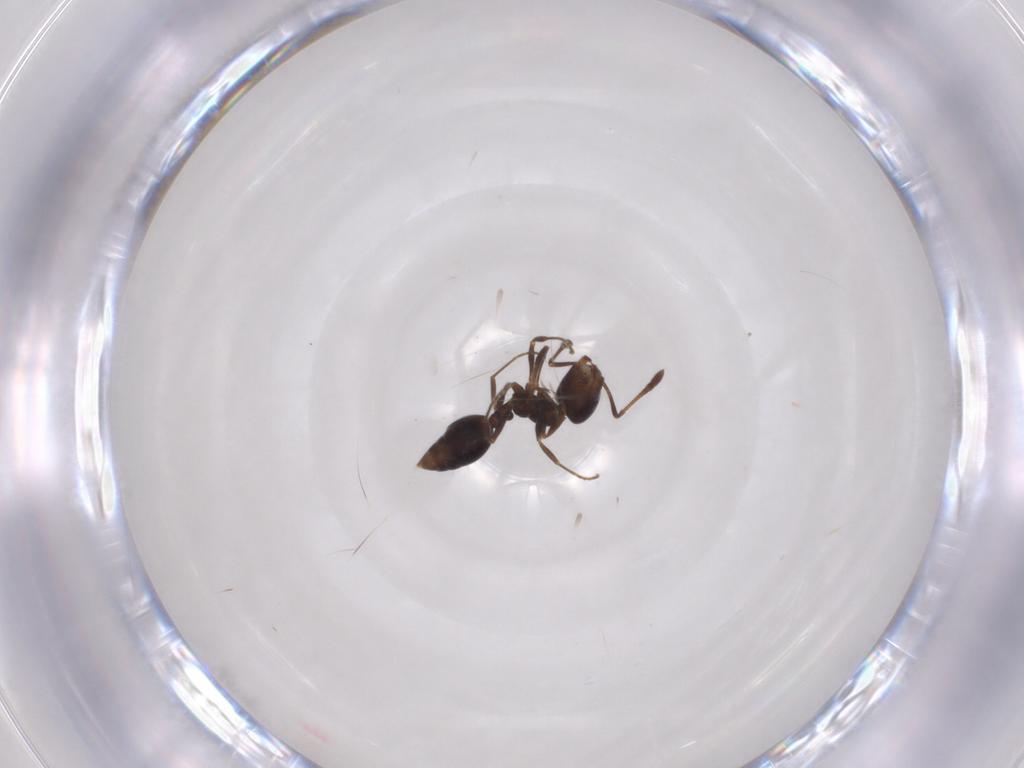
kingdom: Animalia
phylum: Arthropoda
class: Insecta
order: Hymenoptera
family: Formicidae
